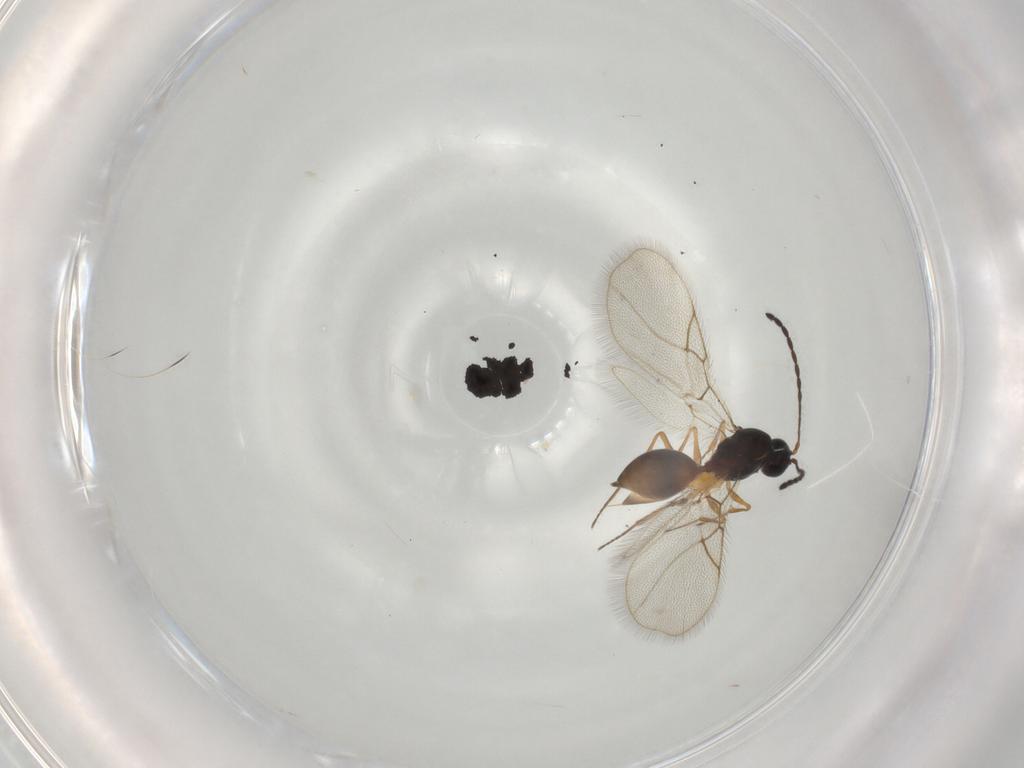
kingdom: Animalia
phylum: Arthropoda
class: Insecta
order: Hymenoptera
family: Figitidae
